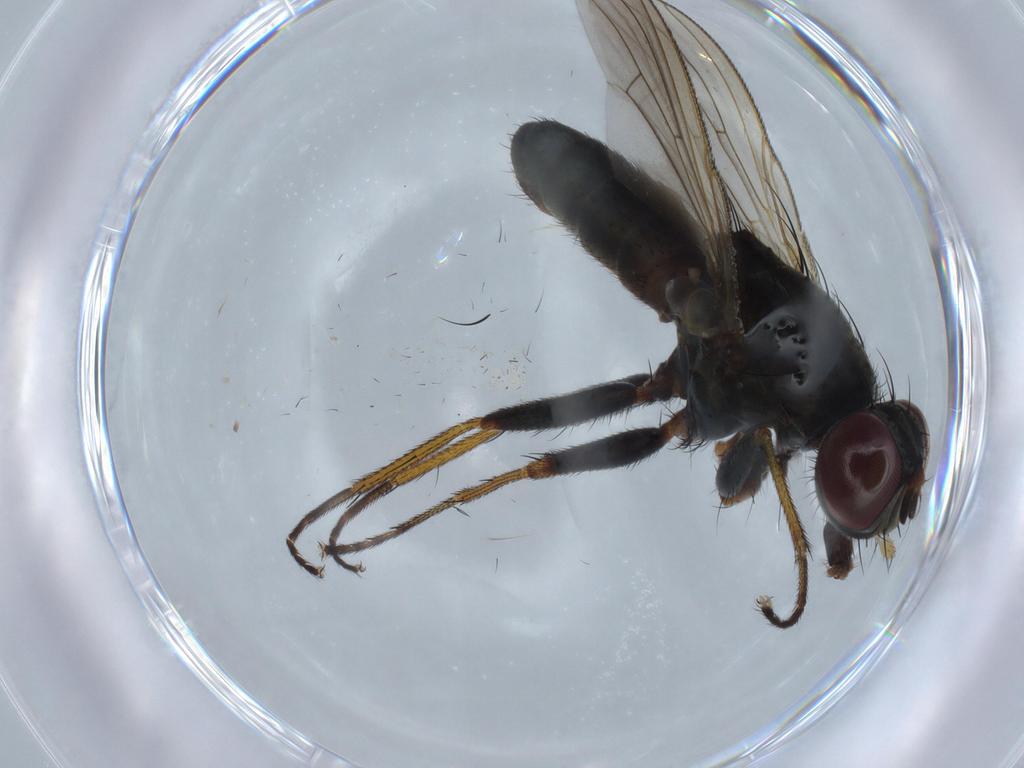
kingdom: Animalia
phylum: Arthropoda
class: Insecta
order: Diptera
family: Muscidae
